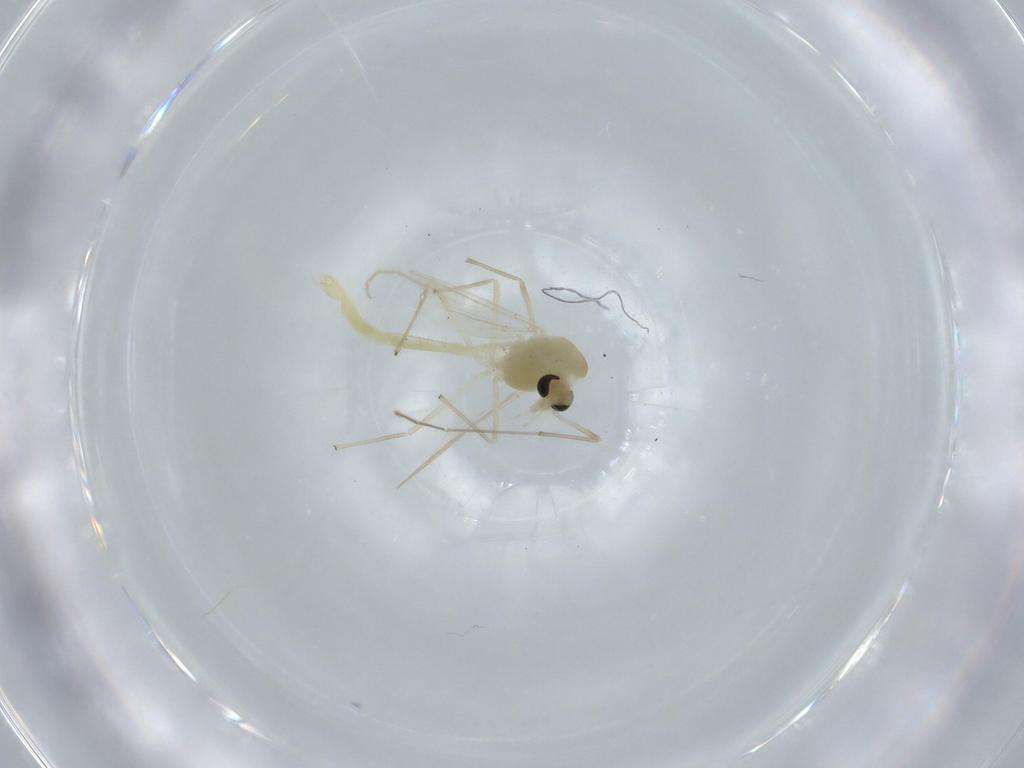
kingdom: Animalia
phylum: Arthropoda
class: Insecta
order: Diptera
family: Chironomidae
